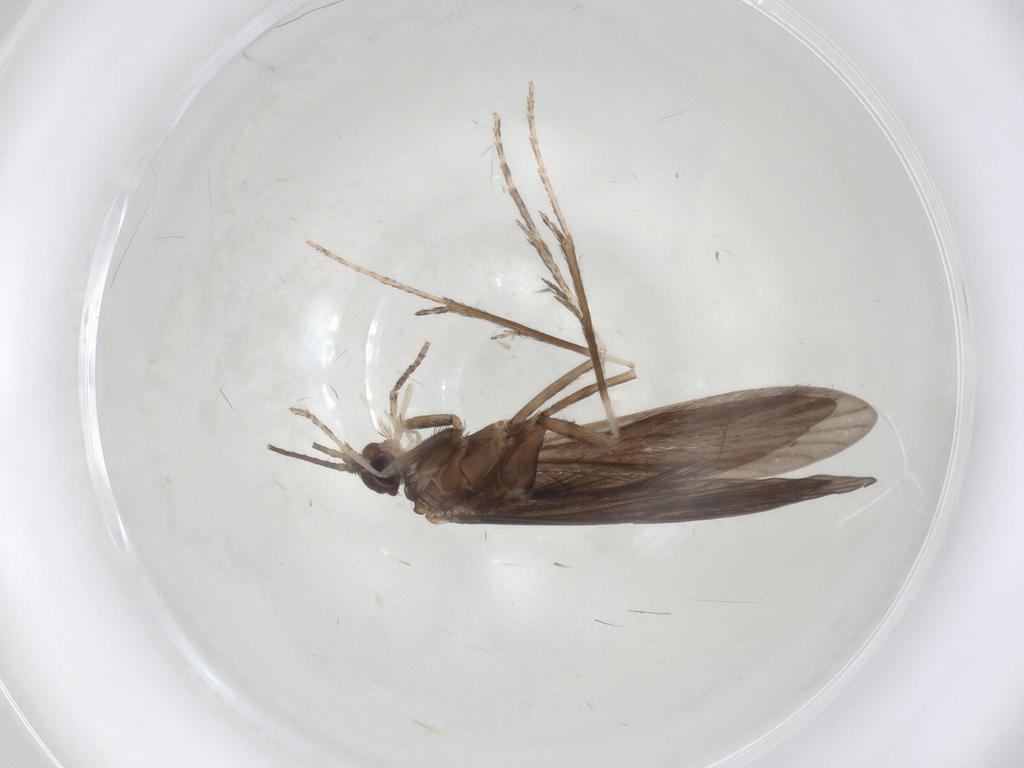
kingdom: Animalia
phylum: Arthropoda
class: Insecta
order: Trichoptera
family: Xiphocentronidae
